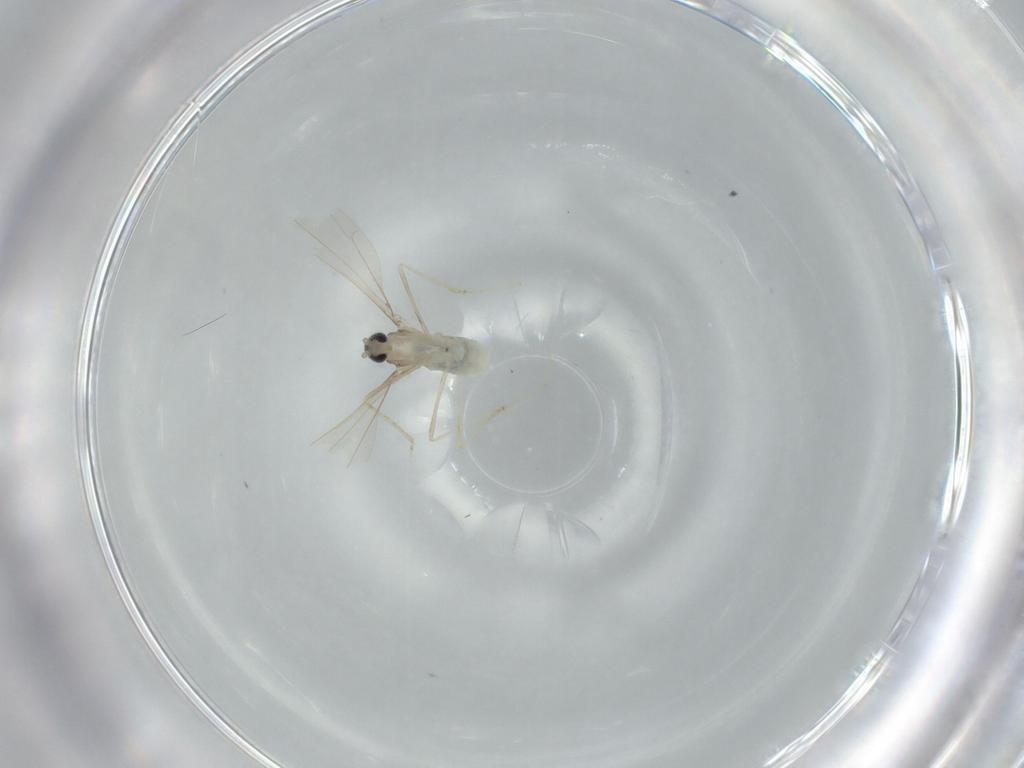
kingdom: Animalia
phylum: Arthropoda
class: Insecta
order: Diptera
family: Cecidomyiidae
